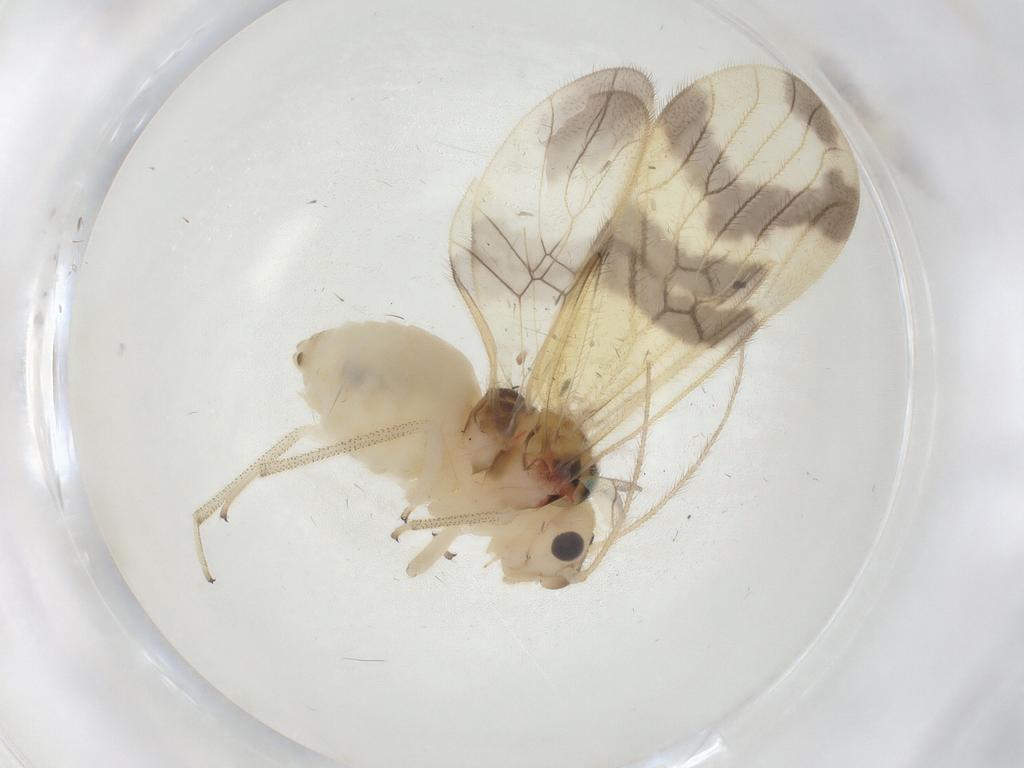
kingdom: Animalia
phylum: Arthropoda
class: Insecta
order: Psocodea
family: Amphipsocidae
